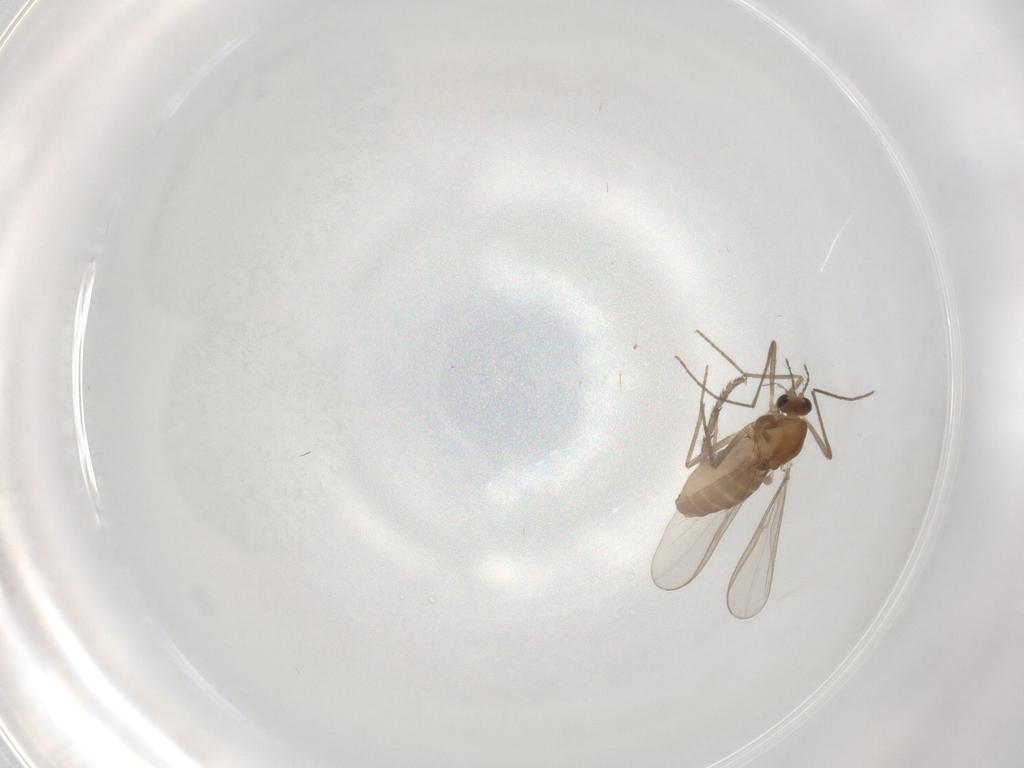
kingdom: Animalia
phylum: Arthropoda
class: Insecta
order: Diptera
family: Chironomidae
